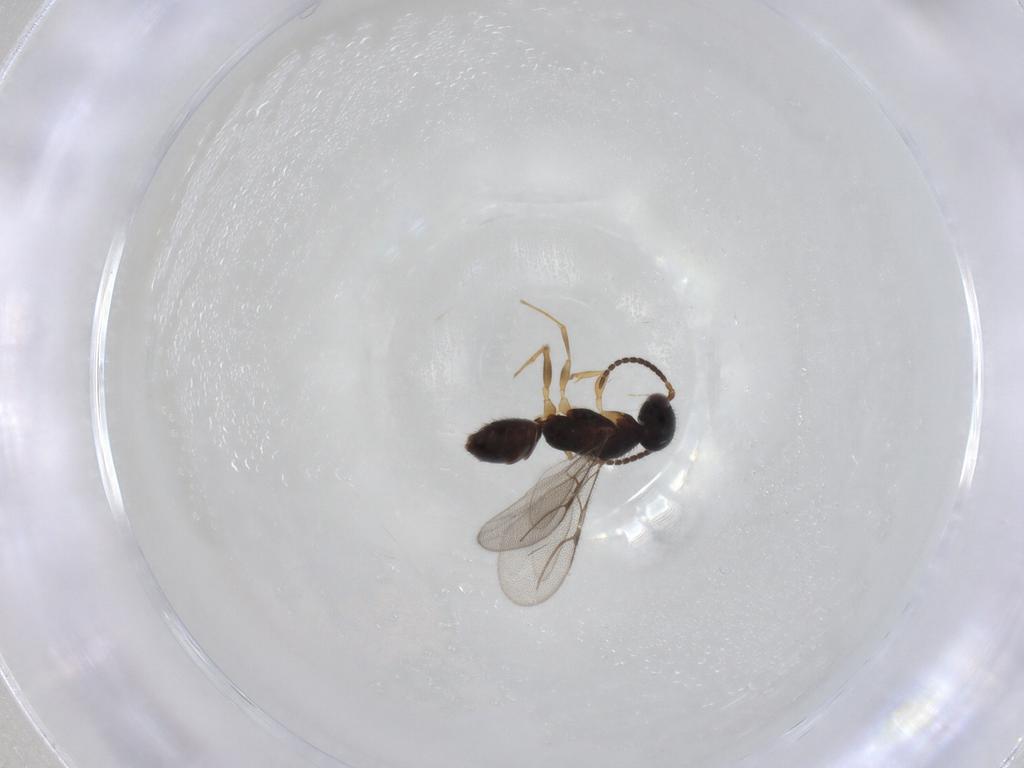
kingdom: Animalia
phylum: Arthropoda
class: Insecta
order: Hymenoptera
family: Bethylidae
